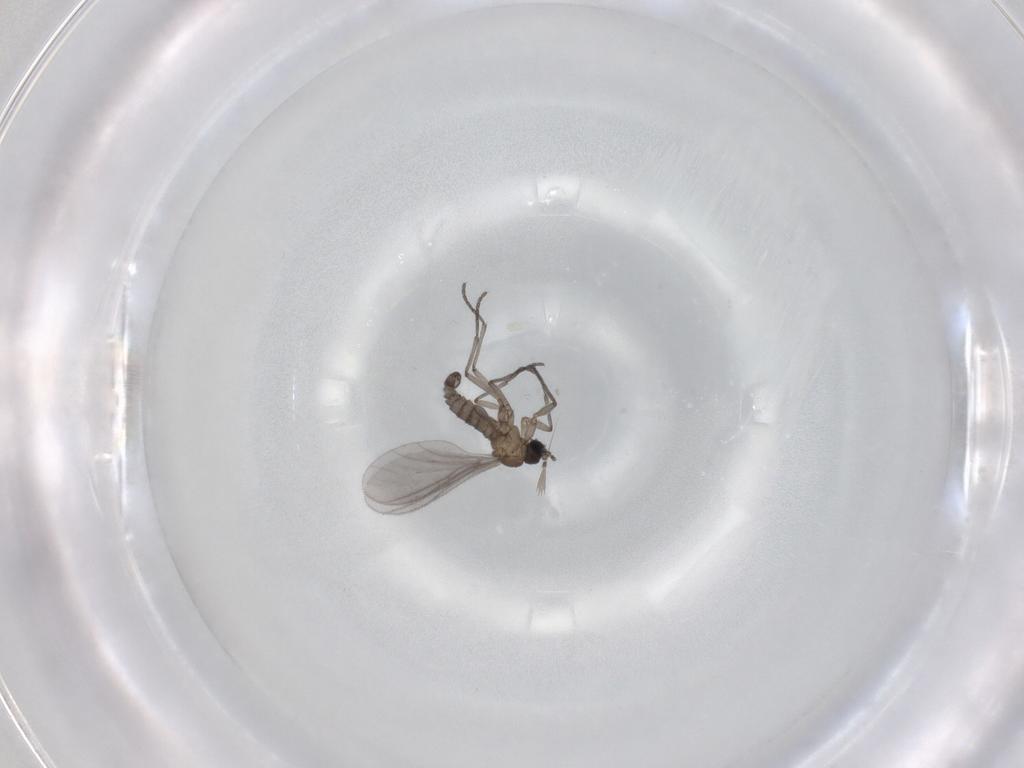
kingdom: Animalia
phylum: Arthropoda
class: Insecta
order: Diptera
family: Sciaridae
